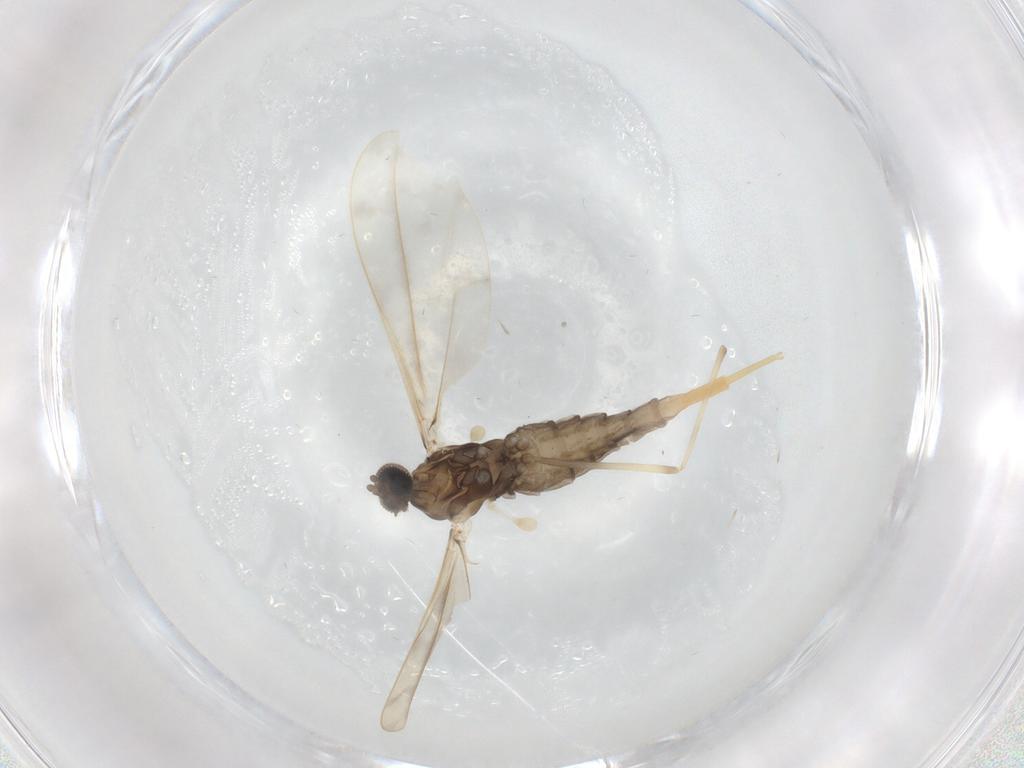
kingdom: Animalia
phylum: Arthropoda
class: Insecta
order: Diptera
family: Cecidomyiidae
